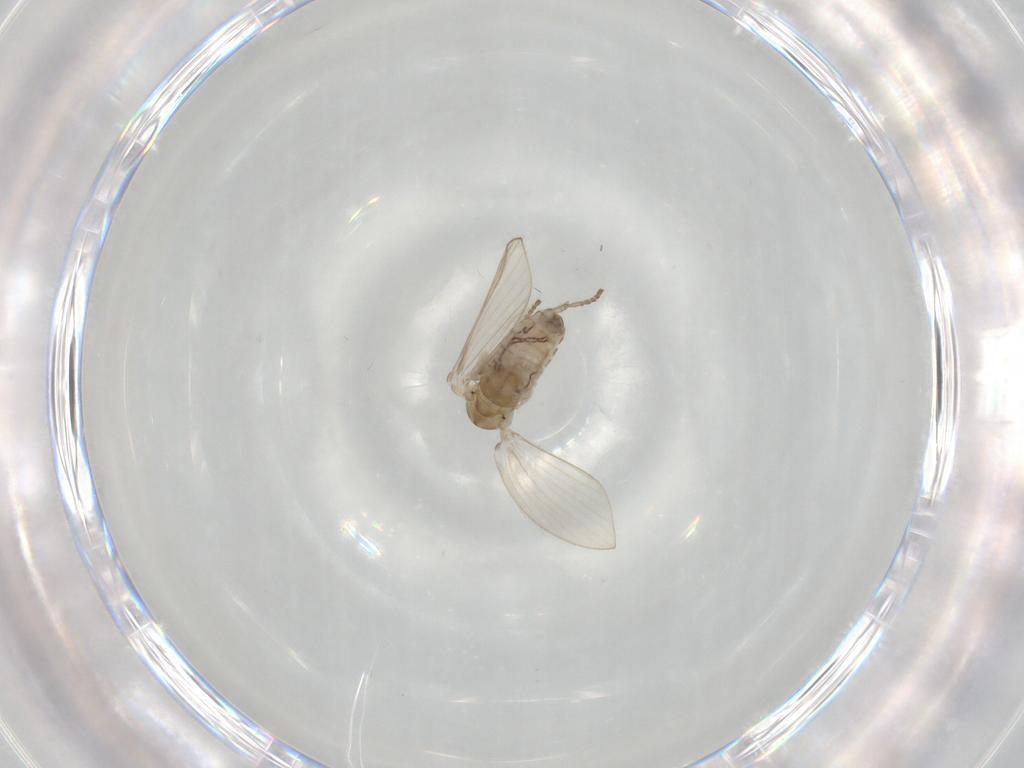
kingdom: Animalia
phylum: Arthropoda
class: Insecta
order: Diptera
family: Psychodidae
